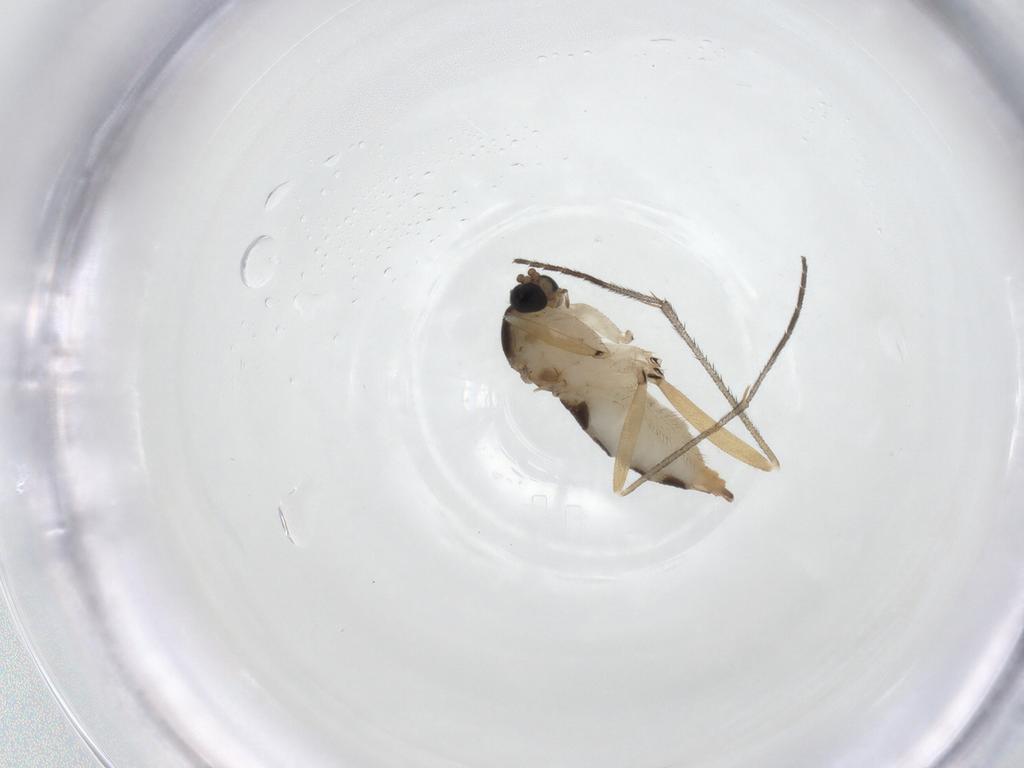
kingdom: Animalia
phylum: Arthropoda
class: Insecta
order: Diptera
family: Sciaridae
